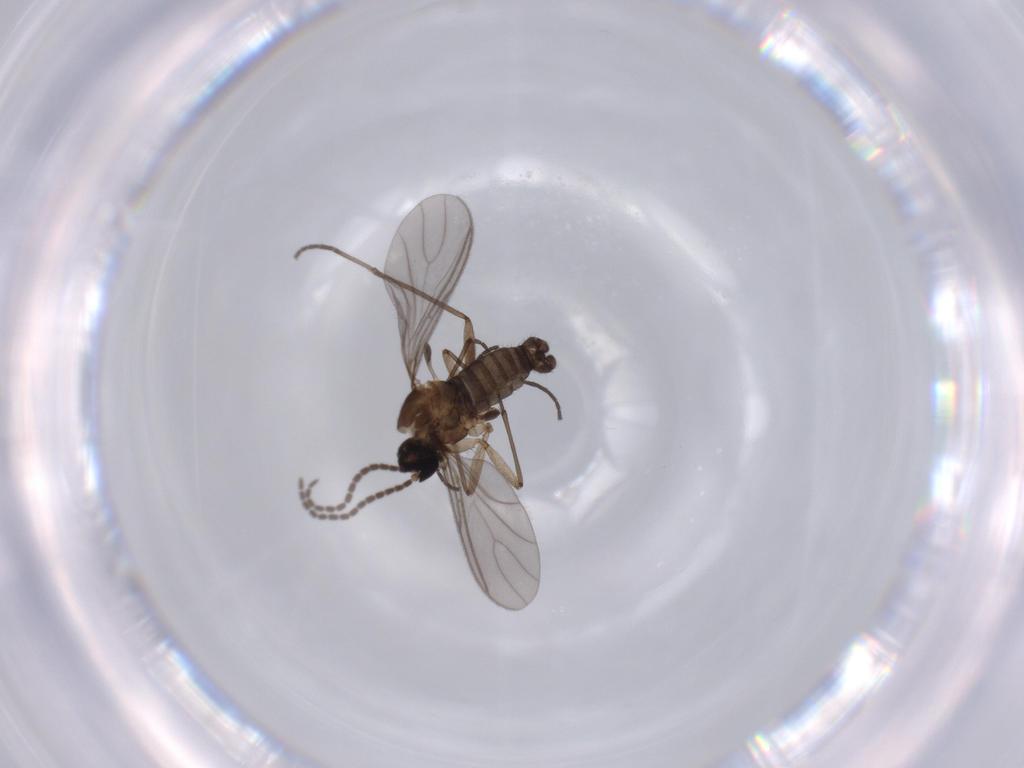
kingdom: Animalia
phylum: Arthropoda
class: Insecta
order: Diptera
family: Sciaridae
